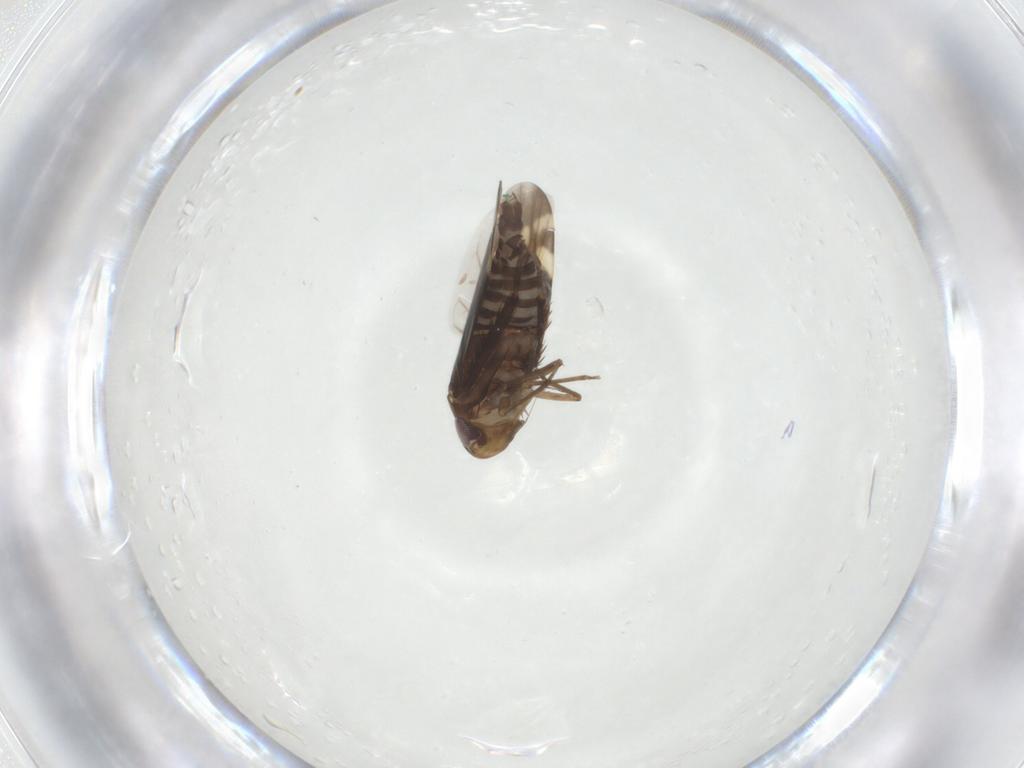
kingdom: Animalia
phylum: Arthropoda
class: Insecta
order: Hemiptera
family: Cicadellidae
